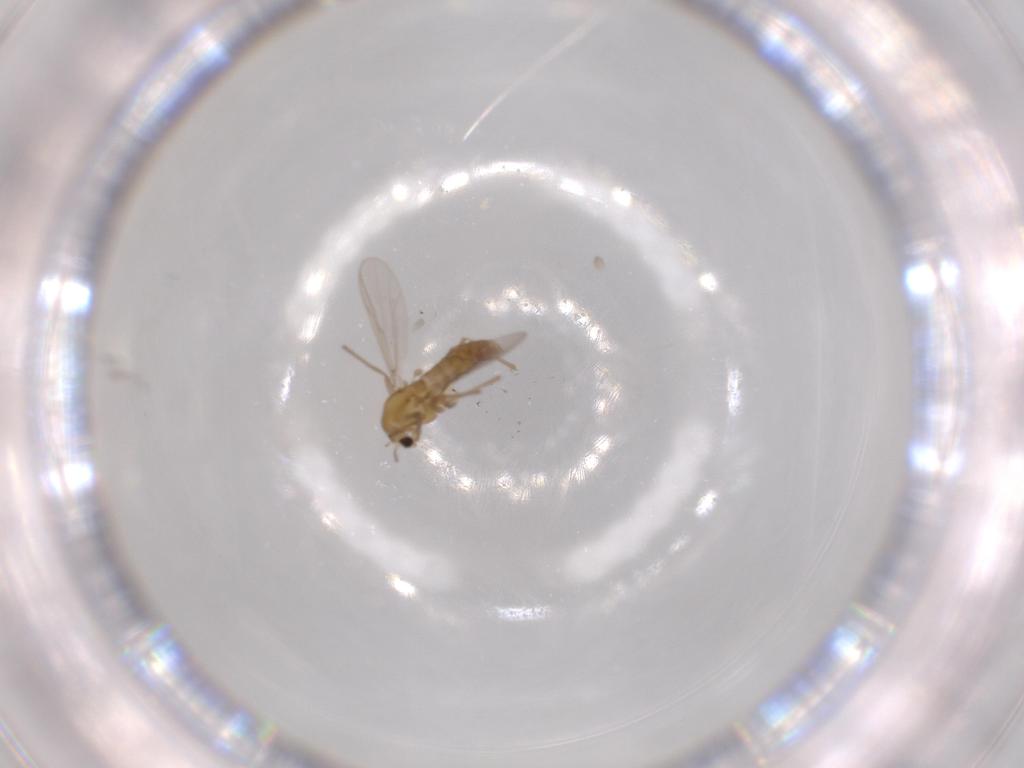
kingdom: Animalia
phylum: Arthropoda
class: Insecta
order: Diptera
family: Chironomidae
